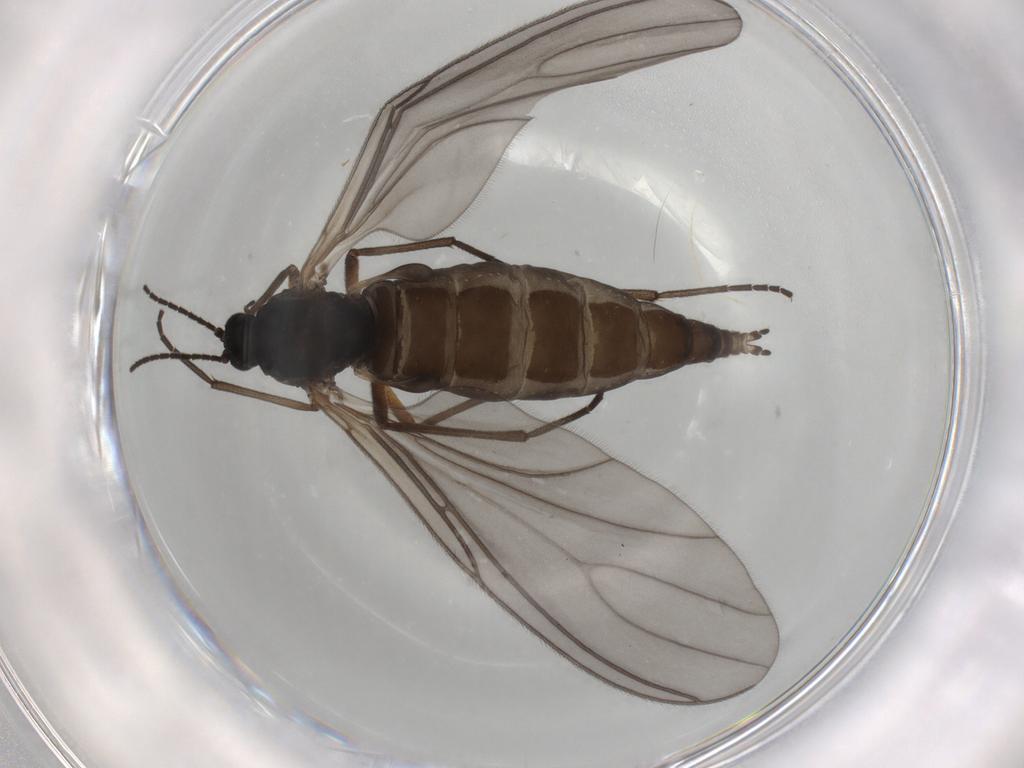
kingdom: Animalia
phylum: Arthropoda
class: Insecta
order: Diptera
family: Sciaridae
